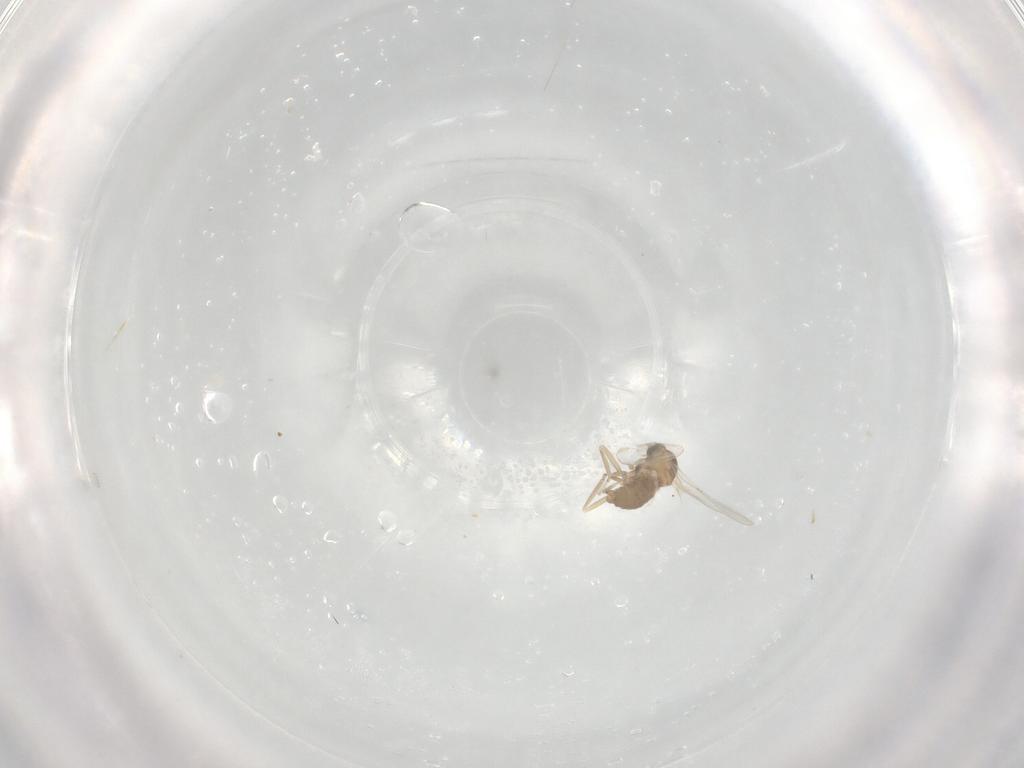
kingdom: Animalia
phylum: Arthropoda
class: Insecta
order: Diptera
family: Cecidomyiidae
